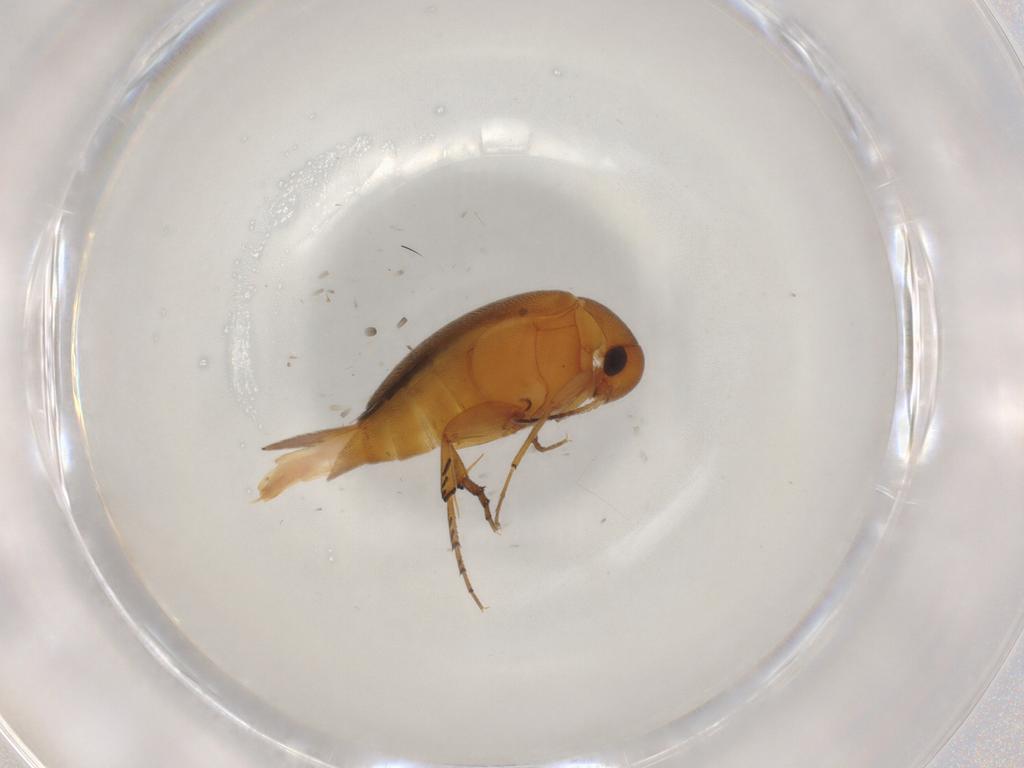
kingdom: Animalia
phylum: Arthropoda
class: Insecta
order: Coleoptera
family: Mordellidae
